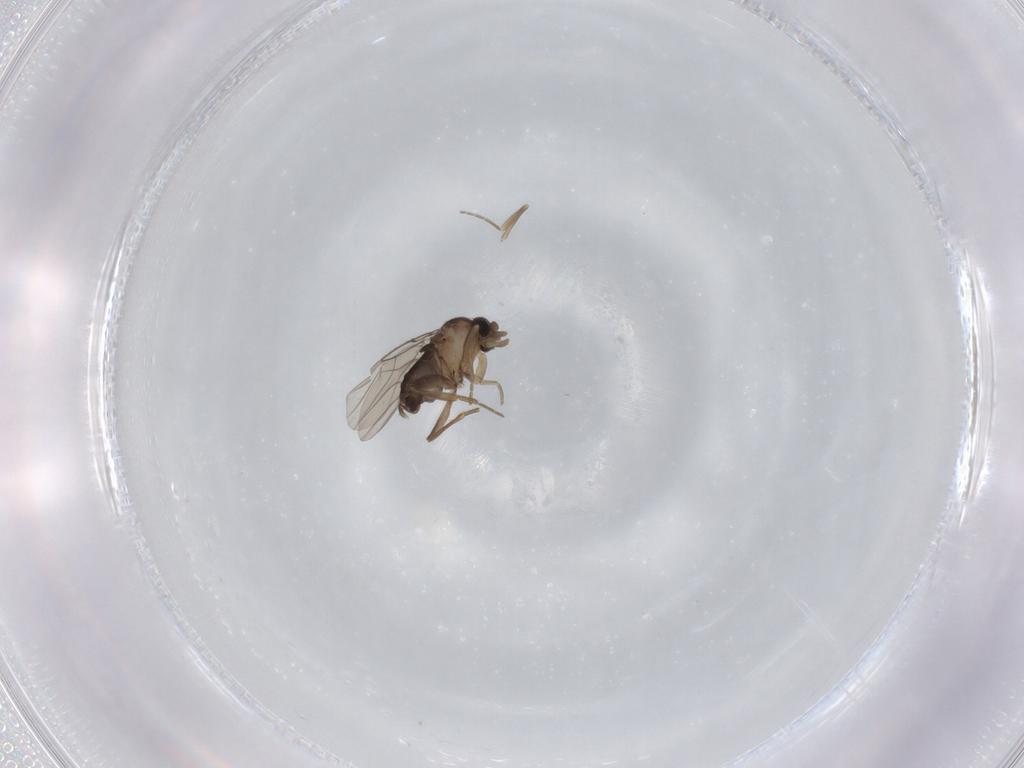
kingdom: Animalia
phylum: Arthropoda
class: Insecta
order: Diptera
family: Phoridae
